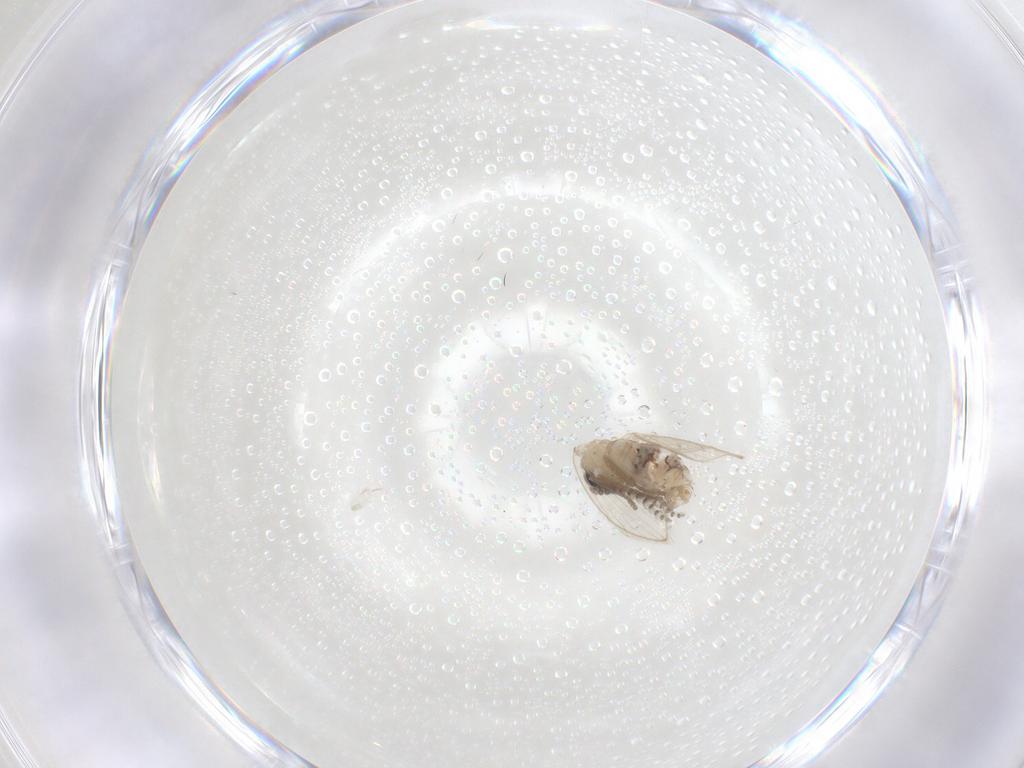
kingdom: Animalia
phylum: Arthropoda
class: Insecta
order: Diptera
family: Psychodidae
